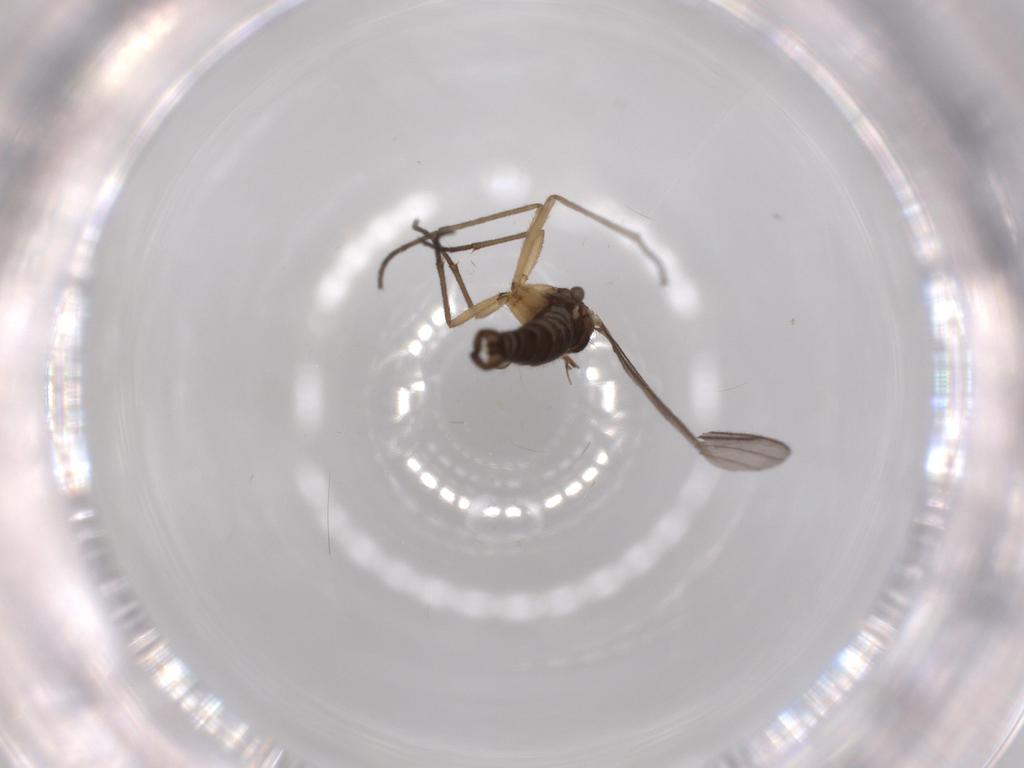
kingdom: Animalia
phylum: Arthropoda
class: Insecta
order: Diptera
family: Sciaridae
